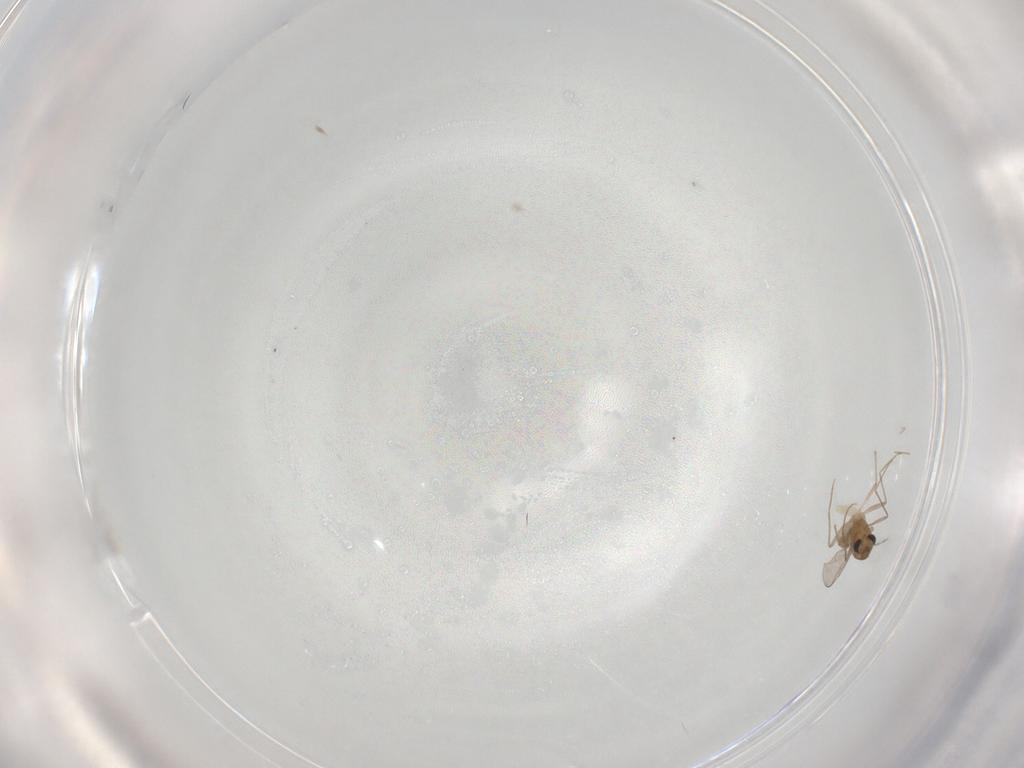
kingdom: Animalia
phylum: Arthropoda
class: Insecta
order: Diptera
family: Chironomidae
